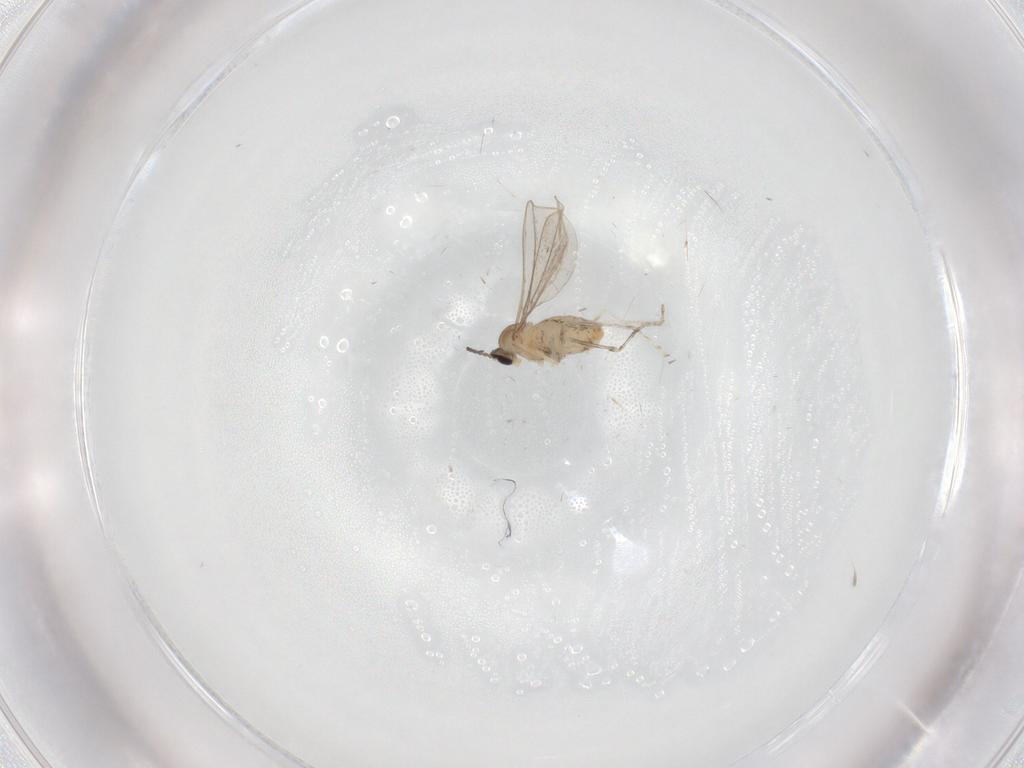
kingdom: Animalia
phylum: Arthropoda
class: Insecta
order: Diptera
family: Cecidomyiidae
